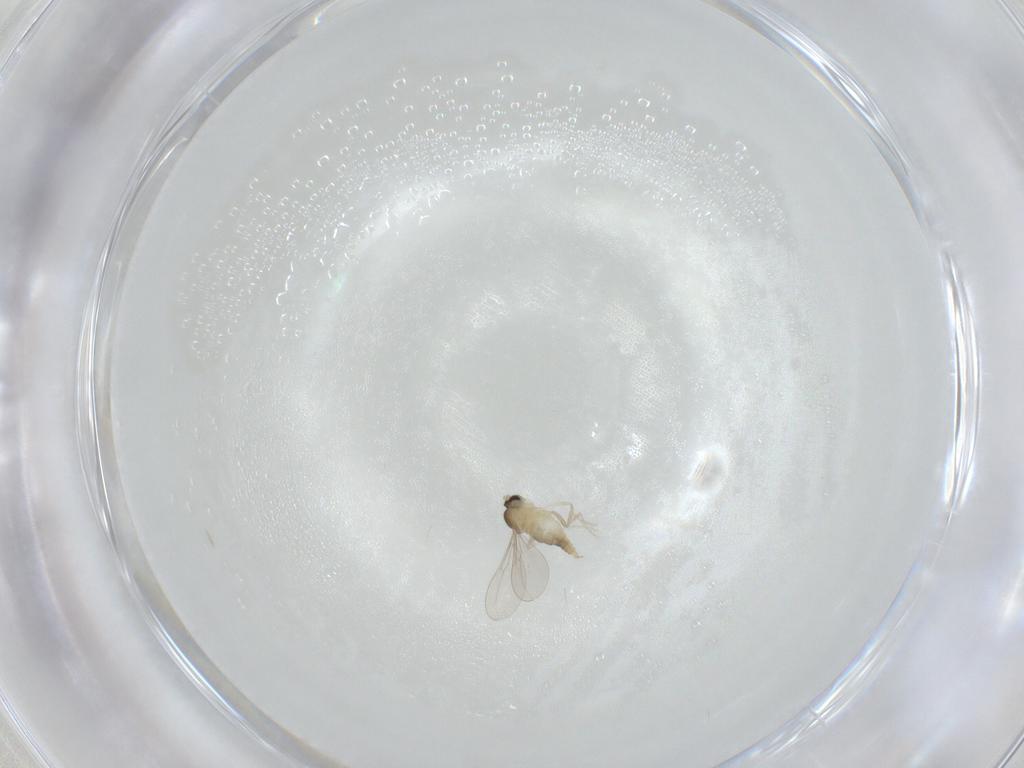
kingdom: Animalia
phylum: Arthropoda
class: Insecta
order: Diptera
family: Cecidomyiidae
